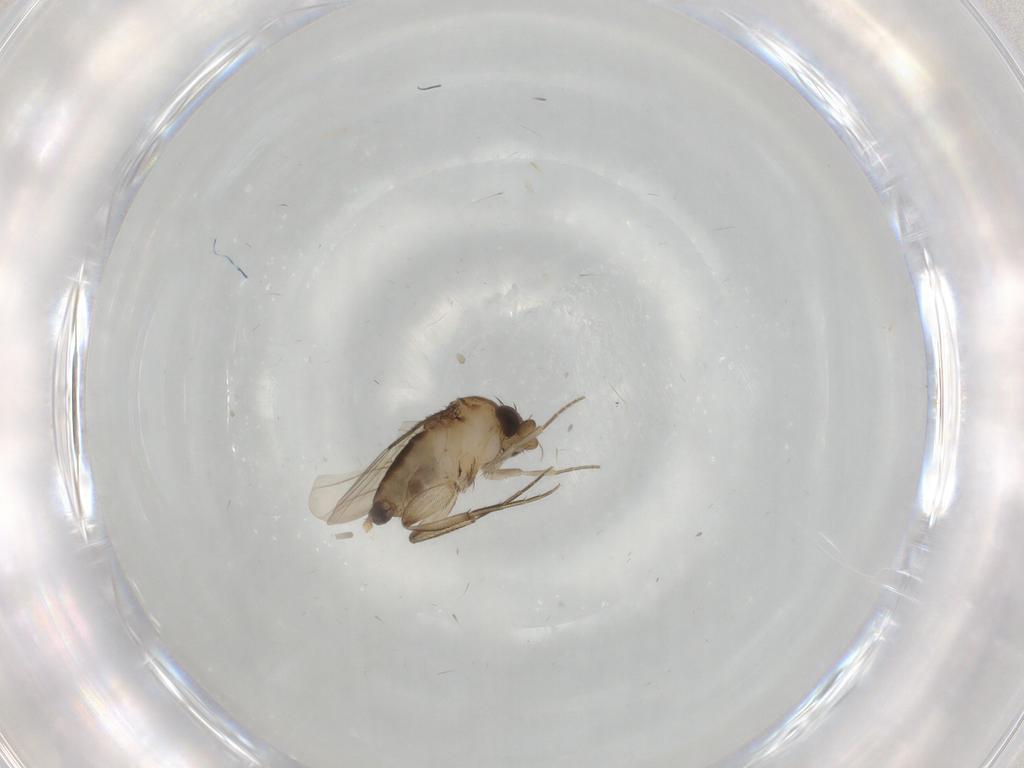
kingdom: Animalia
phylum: Arthropoda
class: Insecta
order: Diptera
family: Phoridae
